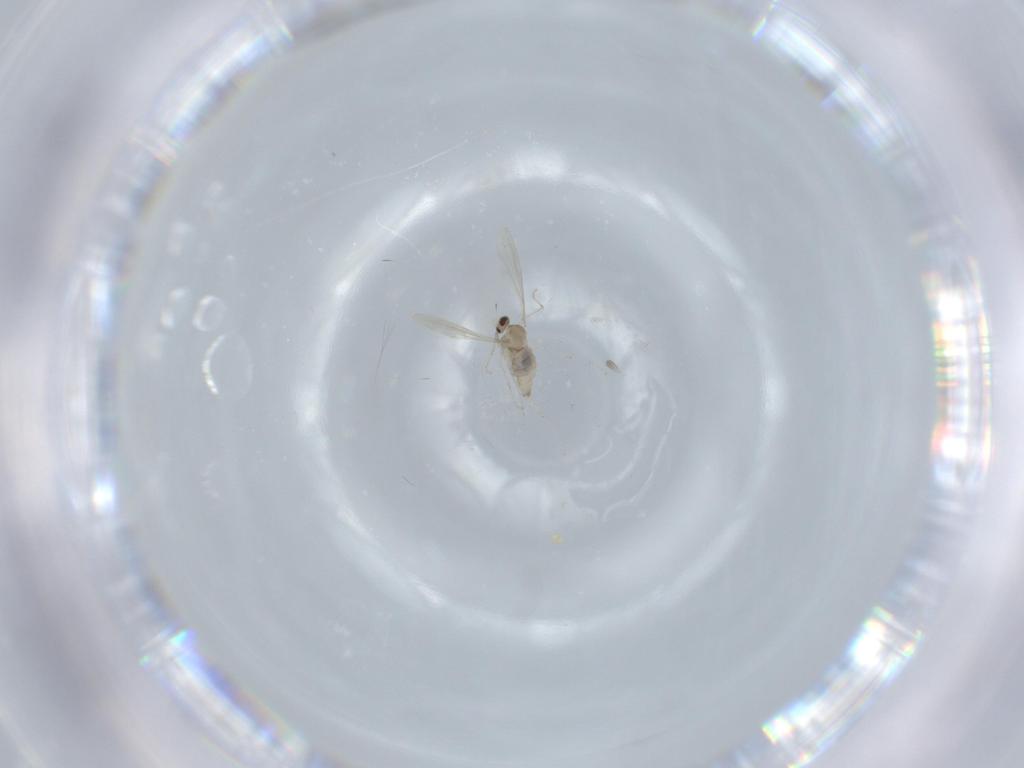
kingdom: Animalia
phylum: Arthropoda
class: Insecta
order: Diptera
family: Cecidomyiidae
